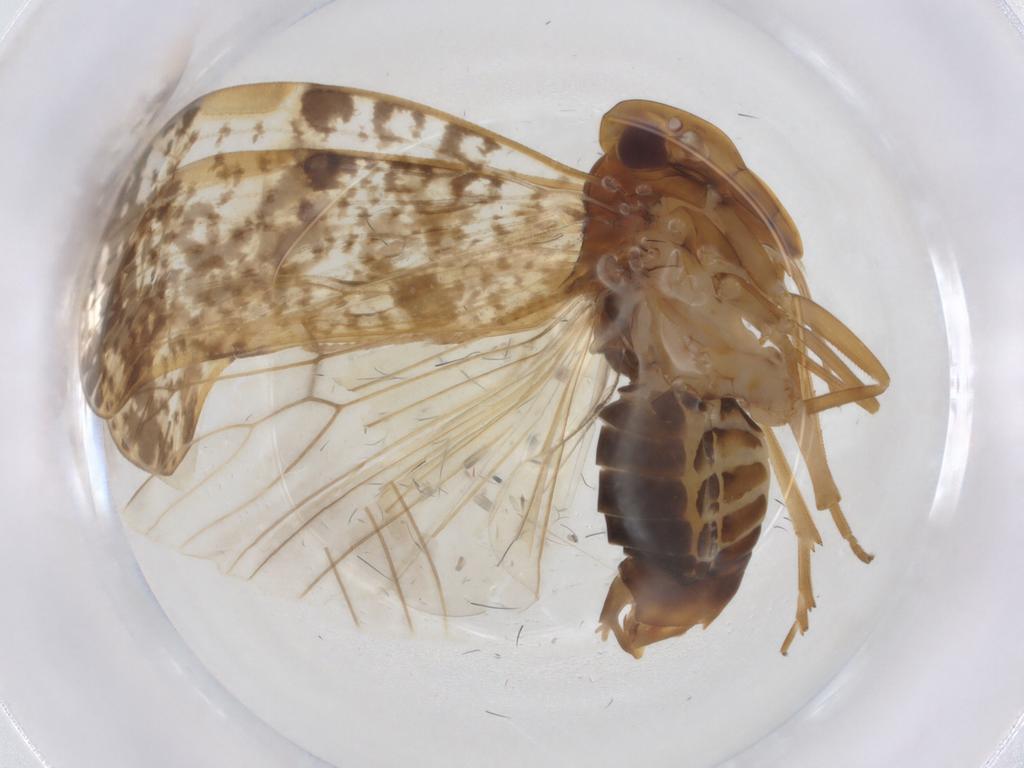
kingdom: Animalia
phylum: Arthropoda
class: Insecta
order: Hemiptera
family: Cixiidae
